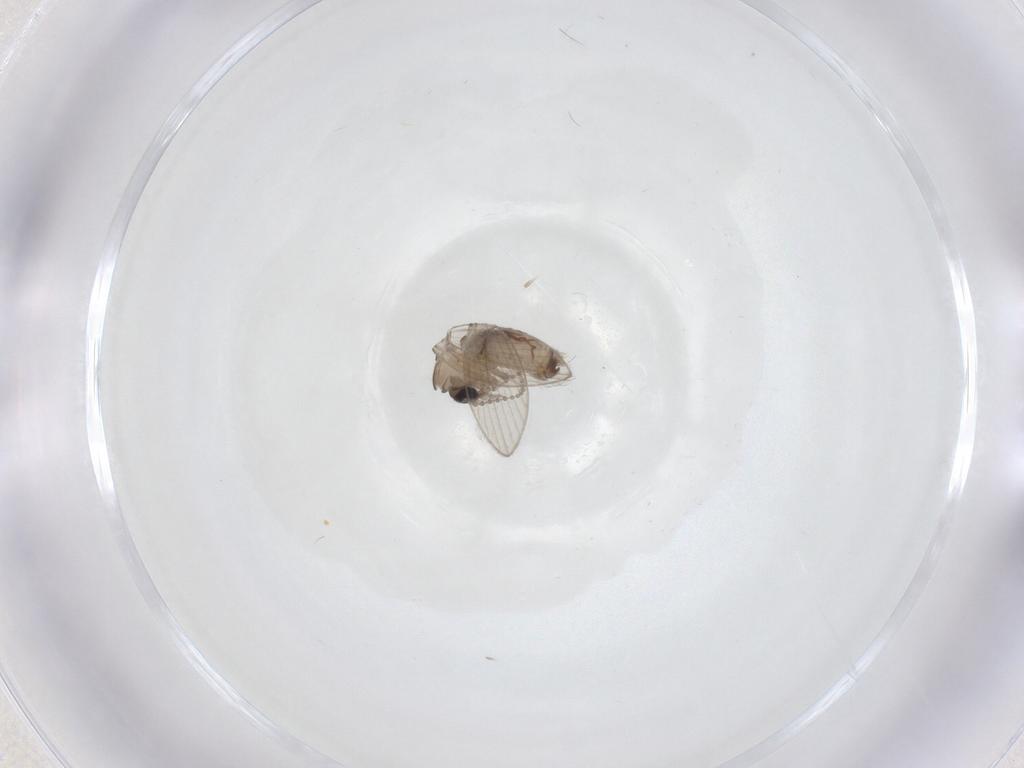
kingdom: Animalia
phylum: Arthropoda
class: Insecta
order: Diptera
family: Psychodidae
